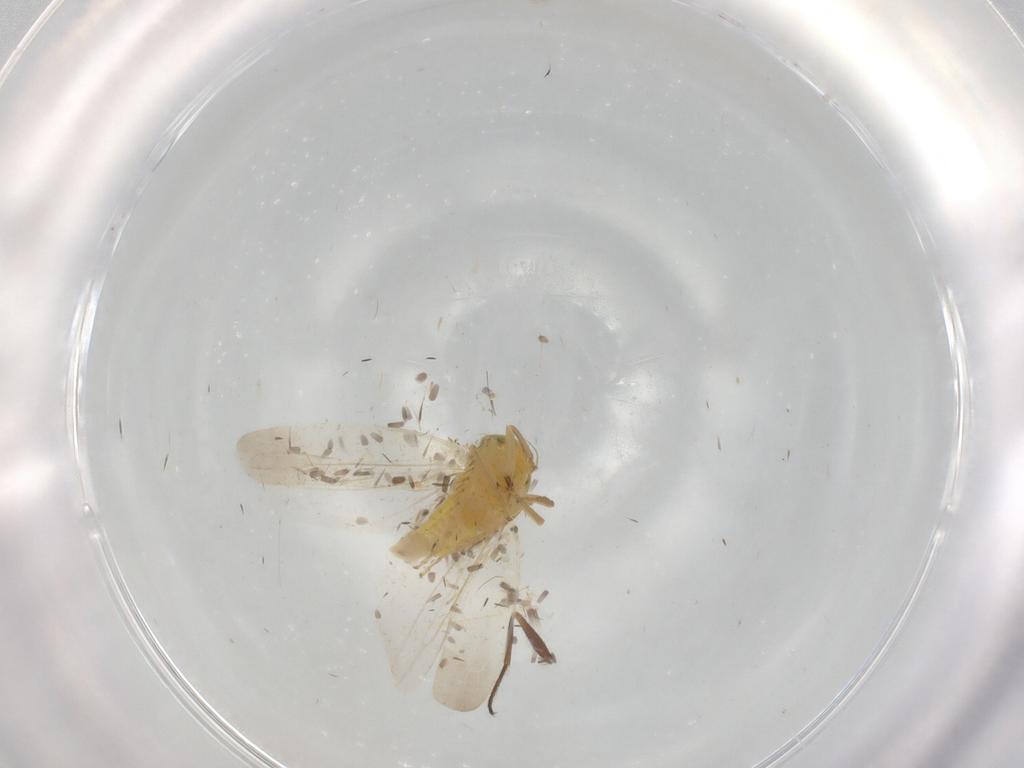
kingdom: Animalia
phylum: Arthropoda
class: Insecta
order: Hemiptera
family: Cicadellidae
